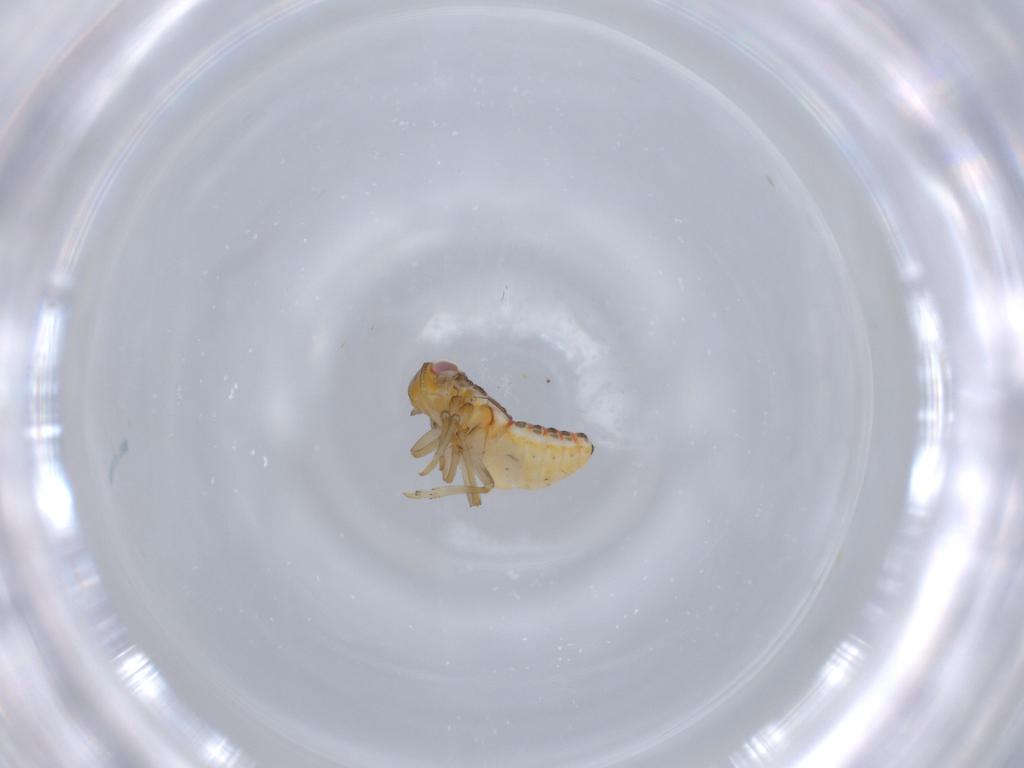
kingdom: Animalia
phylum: Arthropoda
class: Insecta
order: Hemiptera
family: Issidae
